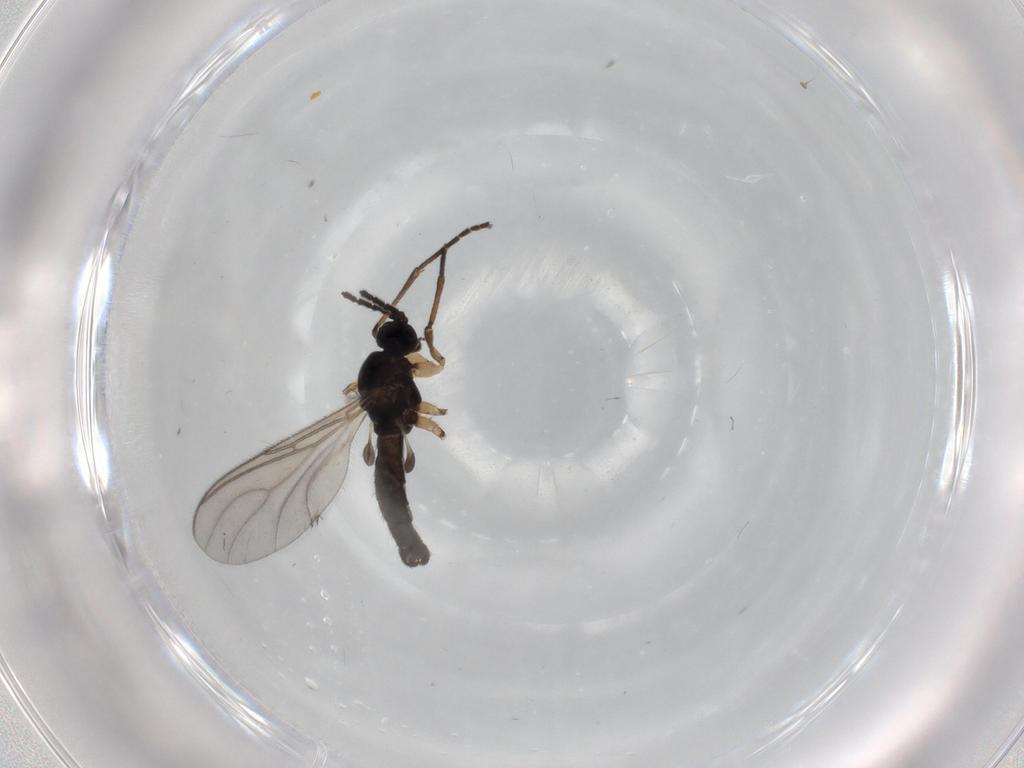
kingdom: Animalia
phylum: Arthropoda
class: Insecta
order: Diptera
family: Sciaridae
